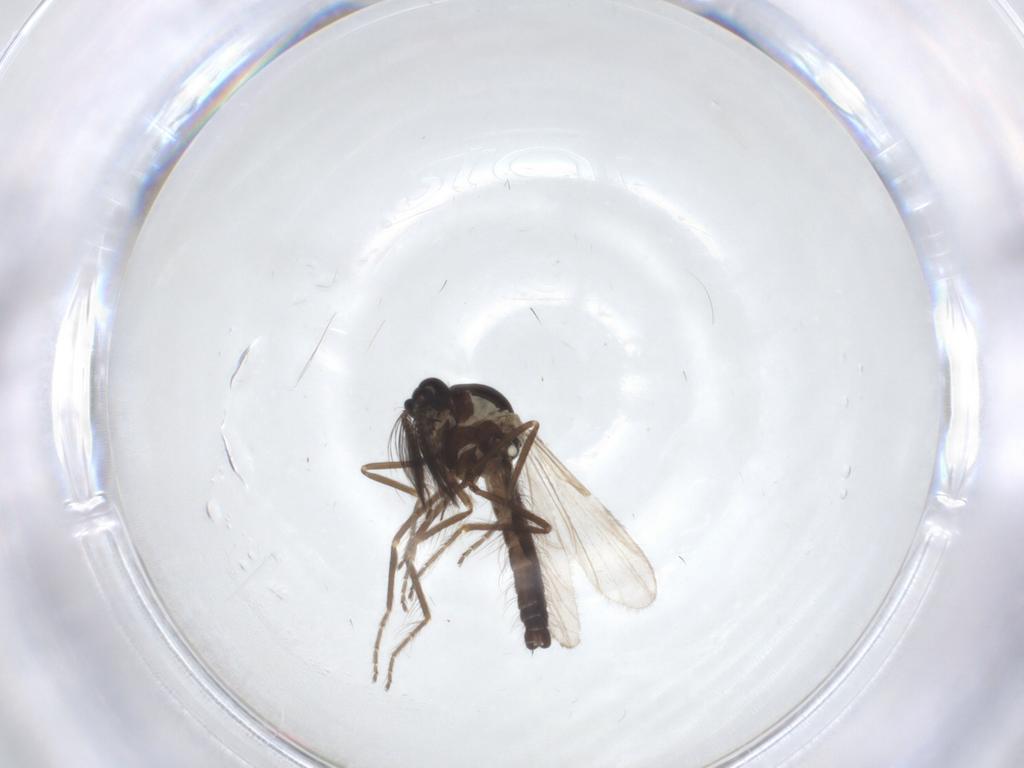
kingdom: Animalia
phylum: Arthropoda
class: Insecta
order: Diptera
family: Ceratopogonidae
